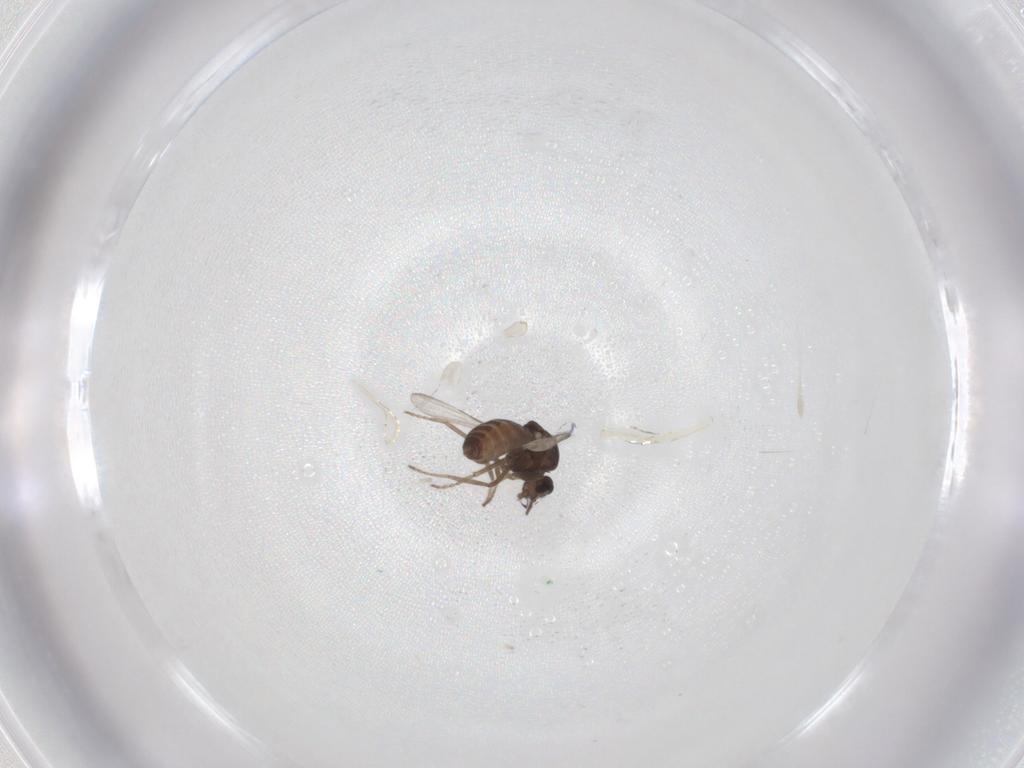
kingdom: Animalia
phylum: Arthropoda
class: Insecta
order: Diptera
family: Ceratopogonidae
